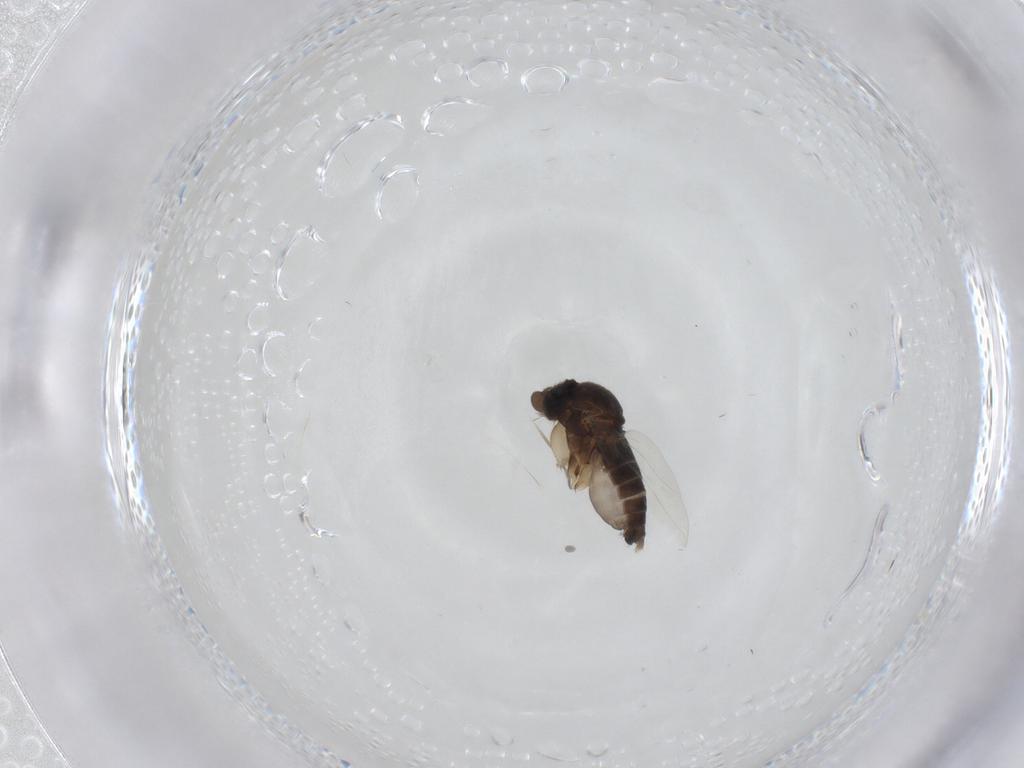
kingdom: Animalia
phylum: Arthropoda
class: Insecta
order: Diptera
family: Phoridae
